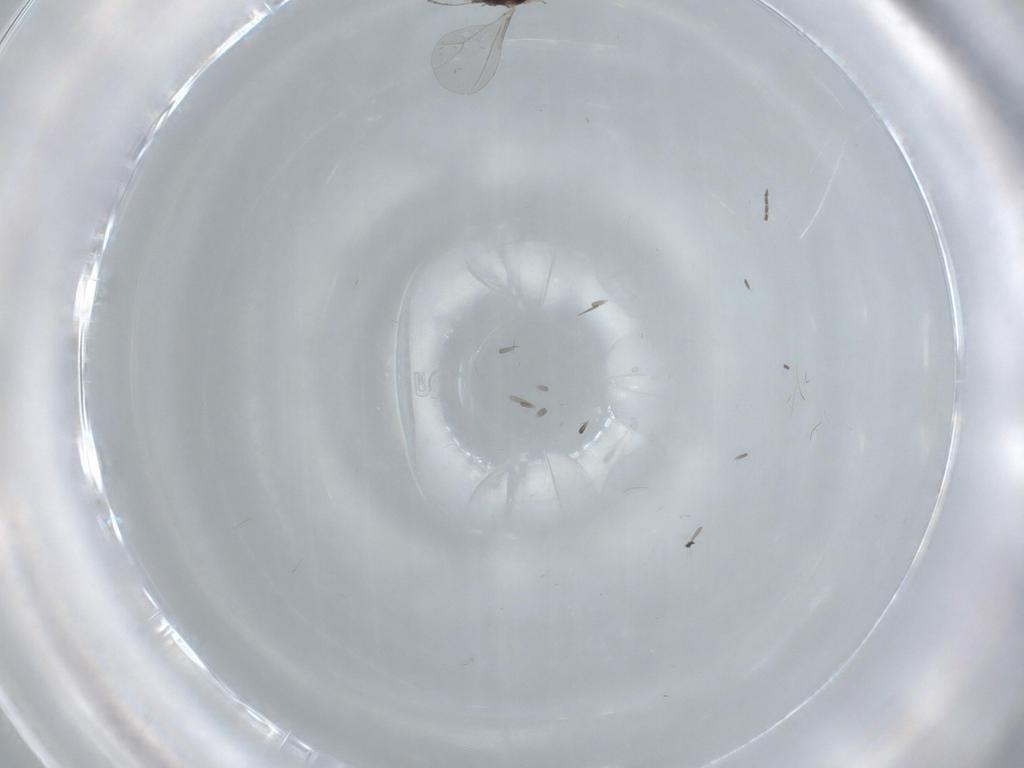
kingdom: Animalia
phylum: Arthropoda
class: Insecta
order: Diptera
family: Cecidomyiidae
